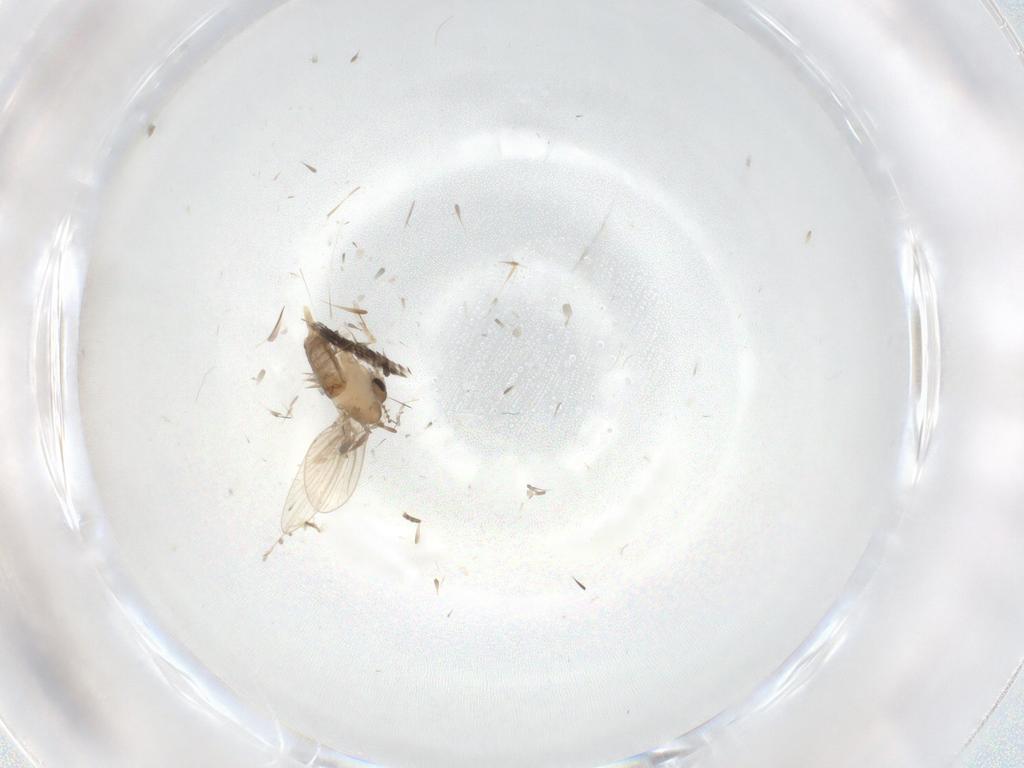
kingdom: Animalia
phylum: Arthropoda
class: Insecta
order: Diptera
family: Cecidomyiidae
